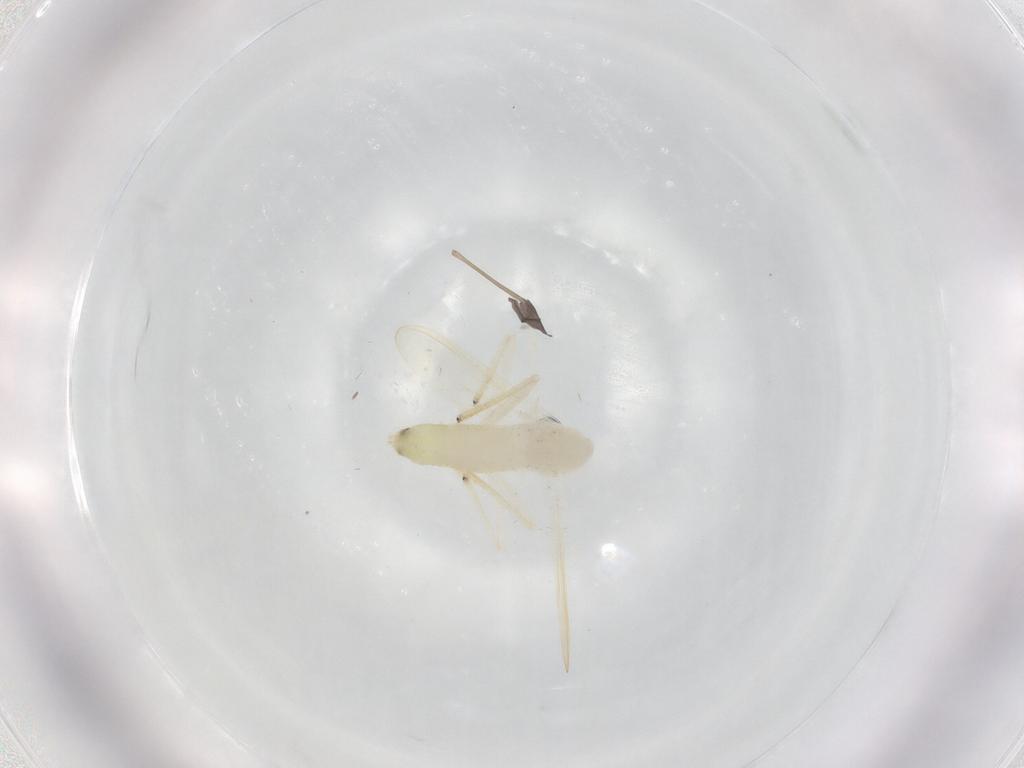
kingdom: Animalia
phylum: Arthropoda
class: Insecta
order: Diptera
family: Chironomidae
